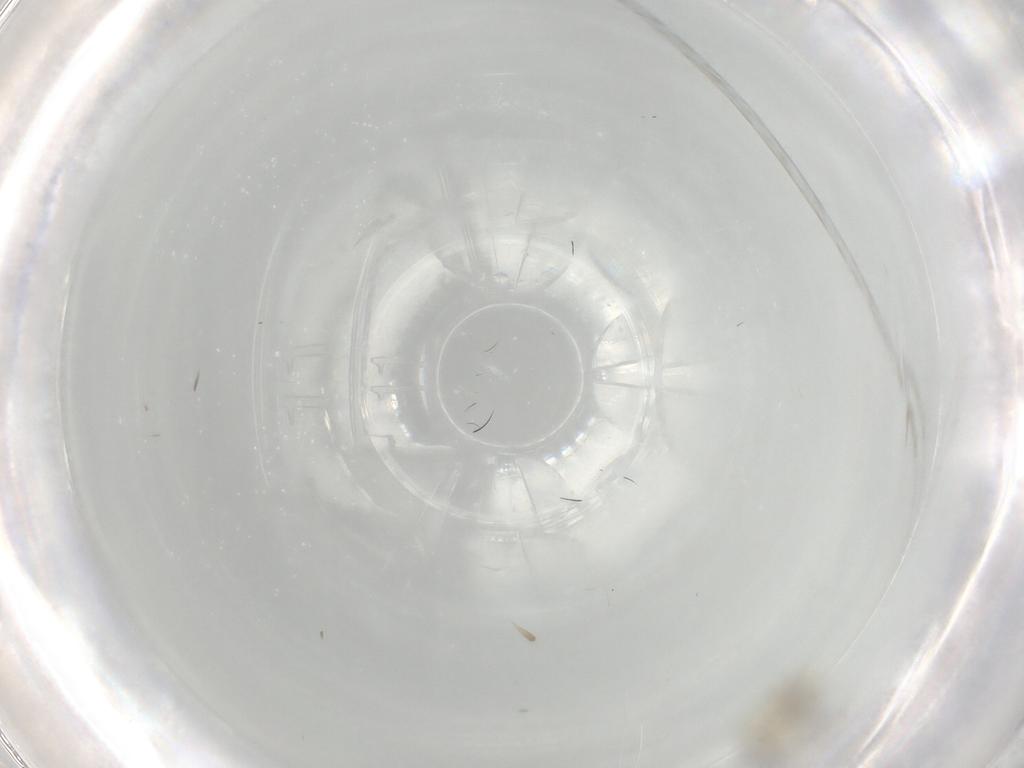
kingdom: Animalia
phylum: Arthropoda
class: Insecta
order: Diptera
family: Cecidomyiidae
